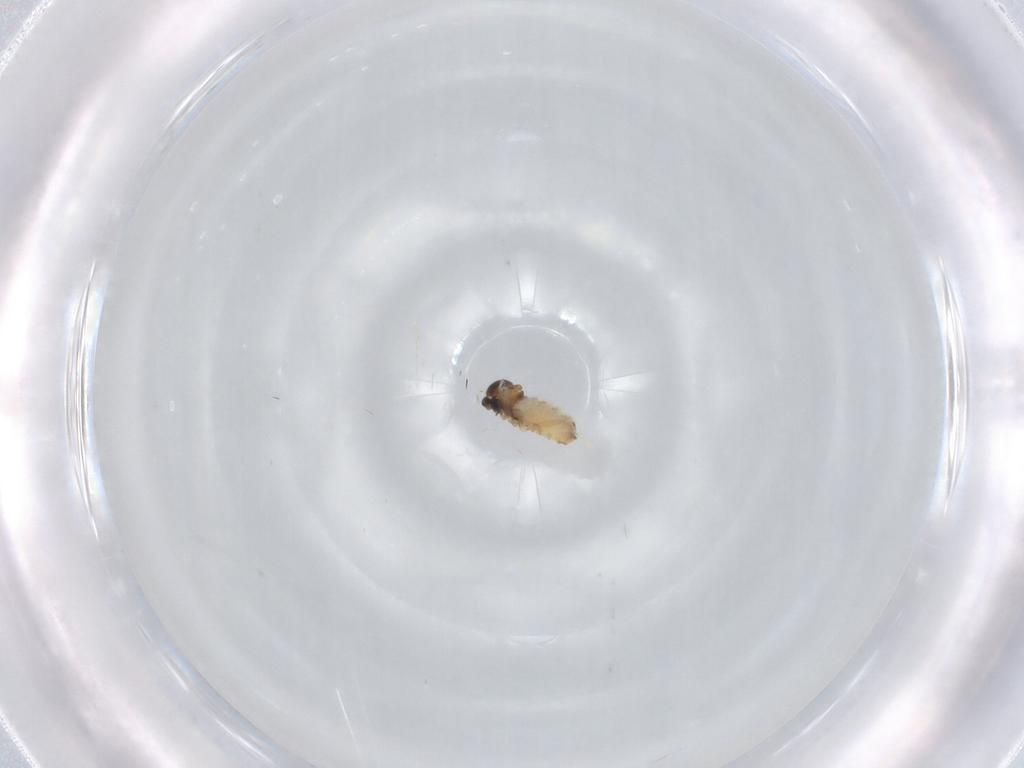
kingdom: Animalia
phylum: Arthropoda
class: Insecta
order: Diptera
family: Cecidomyiidae
